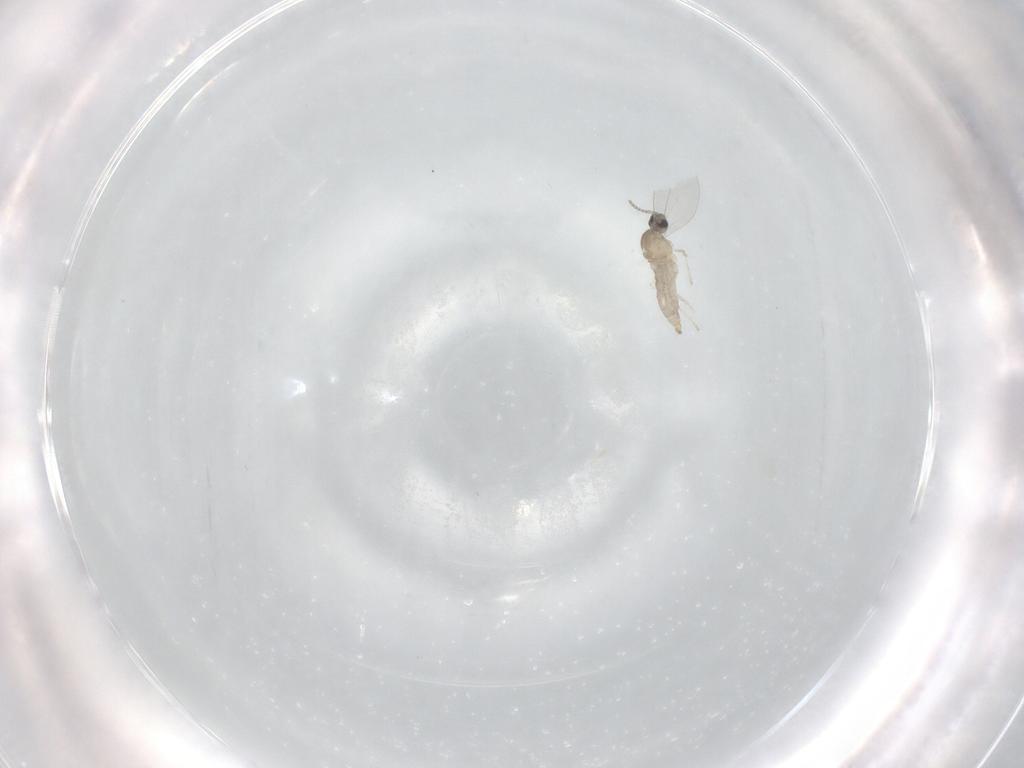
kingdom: Animalia
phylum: Arthropoda
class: Insecta
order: Diptera
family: Cecidomyiidae
